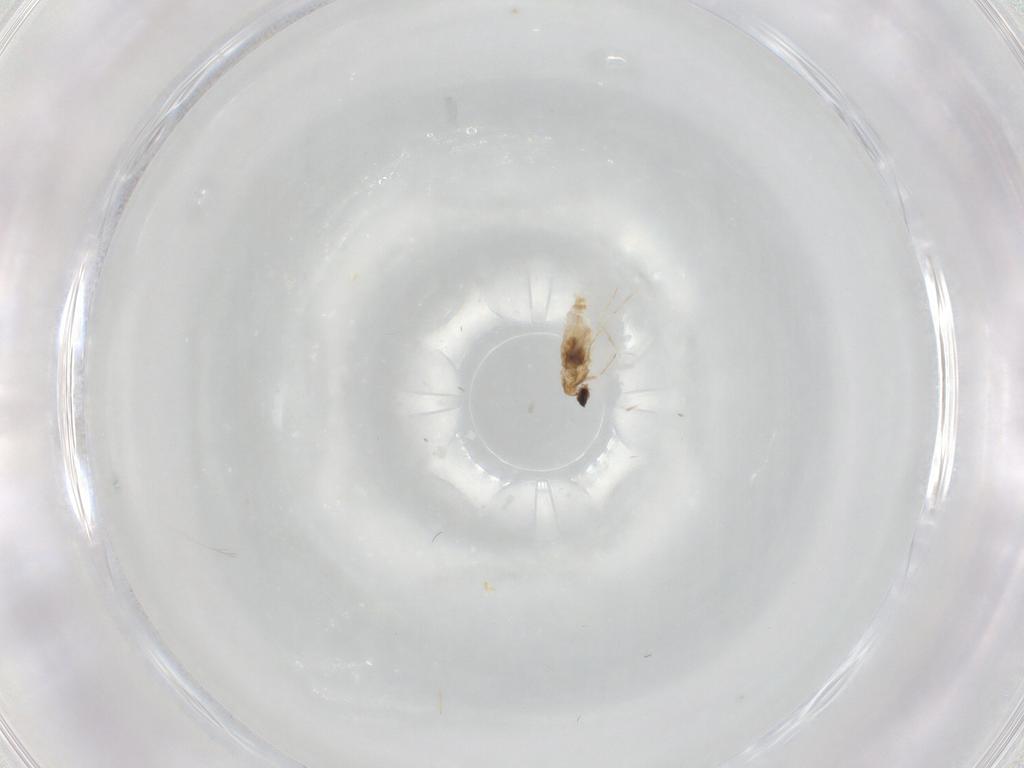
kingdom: Animalia
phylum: Arthropoda
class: Insecta
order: Diptera
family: Cecidomyiidae
